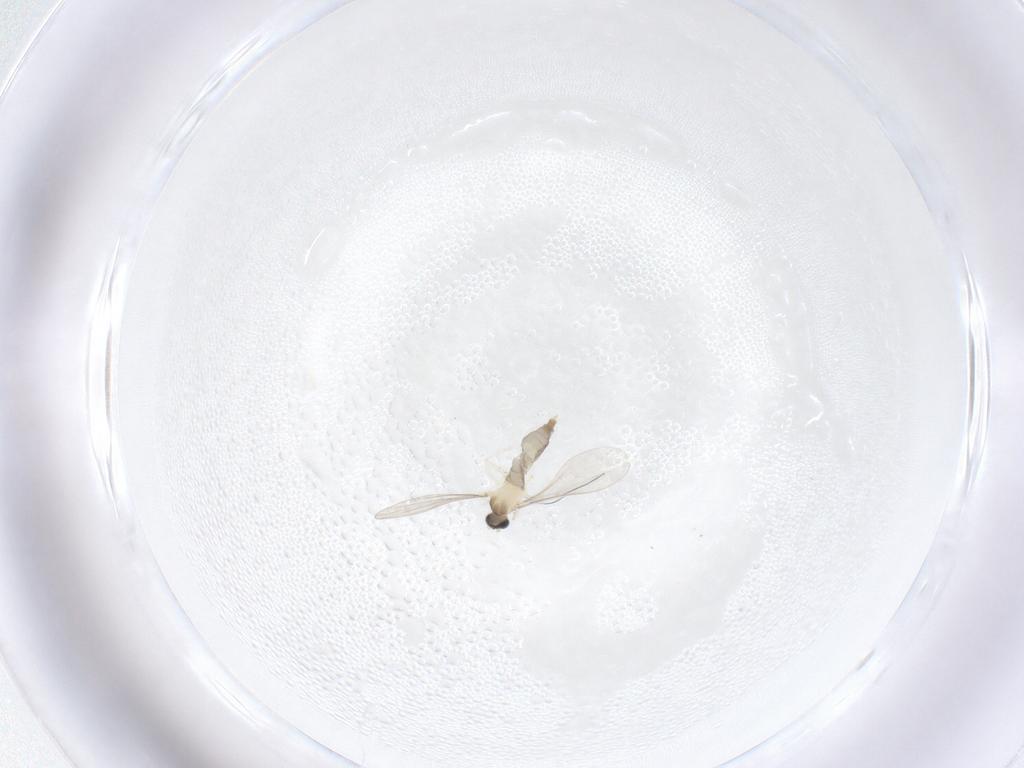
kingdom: Animalia
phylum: Arthropoda
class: Insecta
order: Diptera
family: Cecidomyiidae
